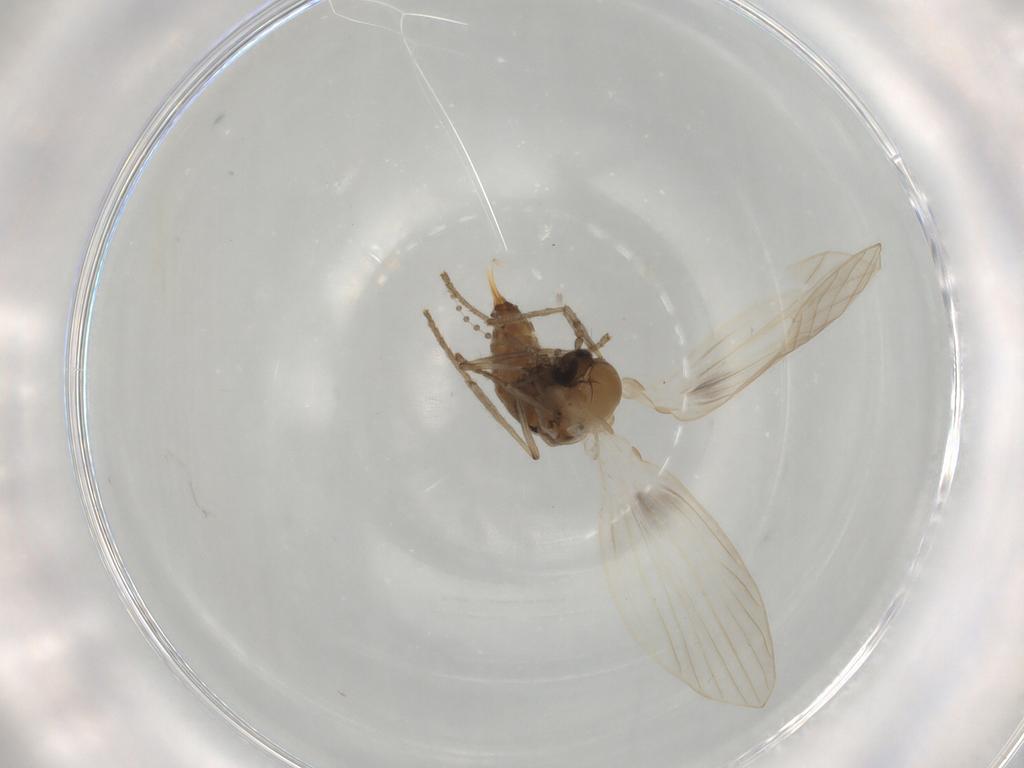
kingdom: Animalia
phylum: Arthropoda
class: Insecta
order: Diptera
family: Psychodidae
